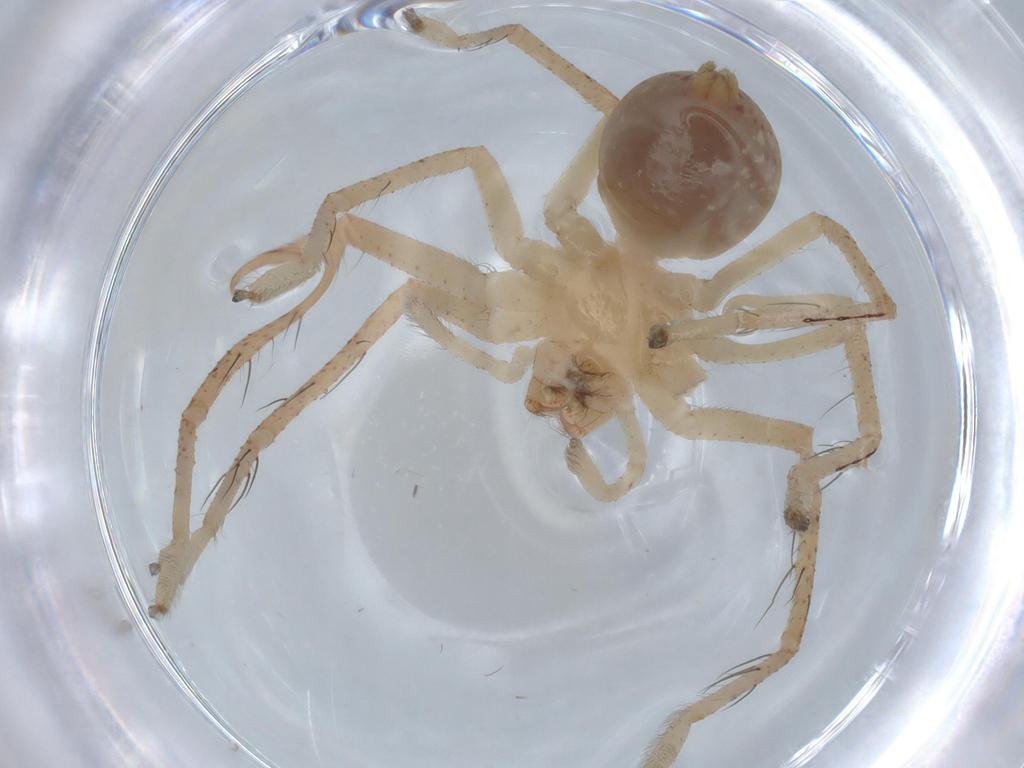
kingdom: Animalia
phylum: Arthropoda
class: Arachnida
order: Araneae
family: Sparassidae
